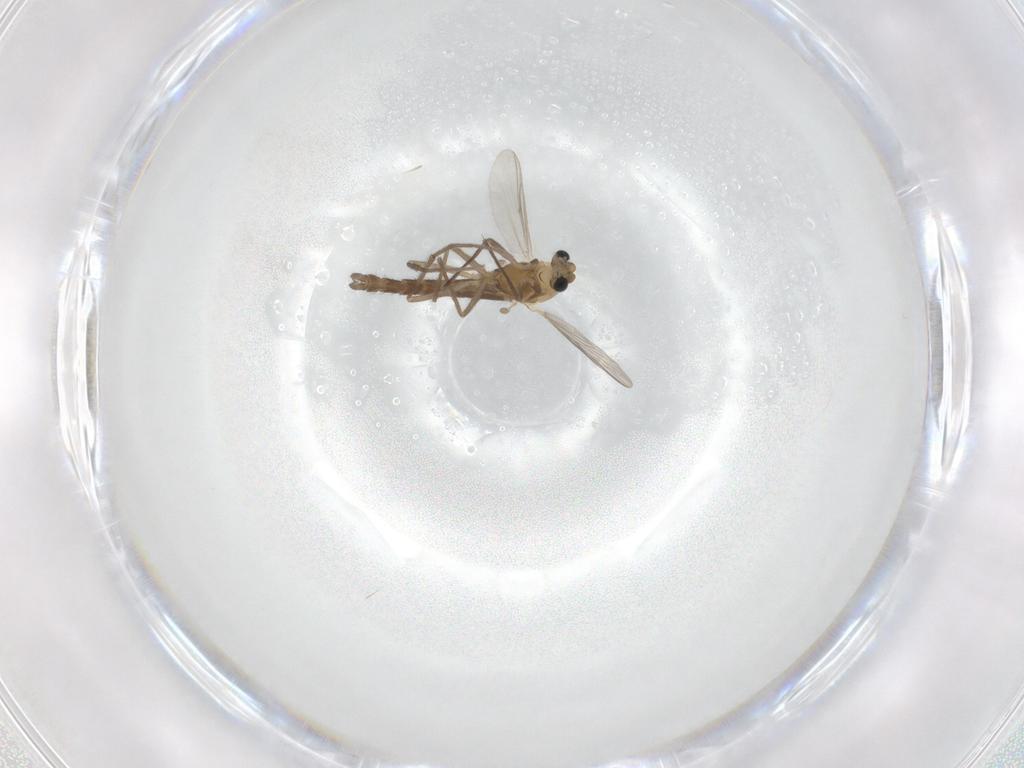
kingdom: Animalia
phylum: Arthropoda
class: Insecta
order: Diptera
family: Chironomidae
